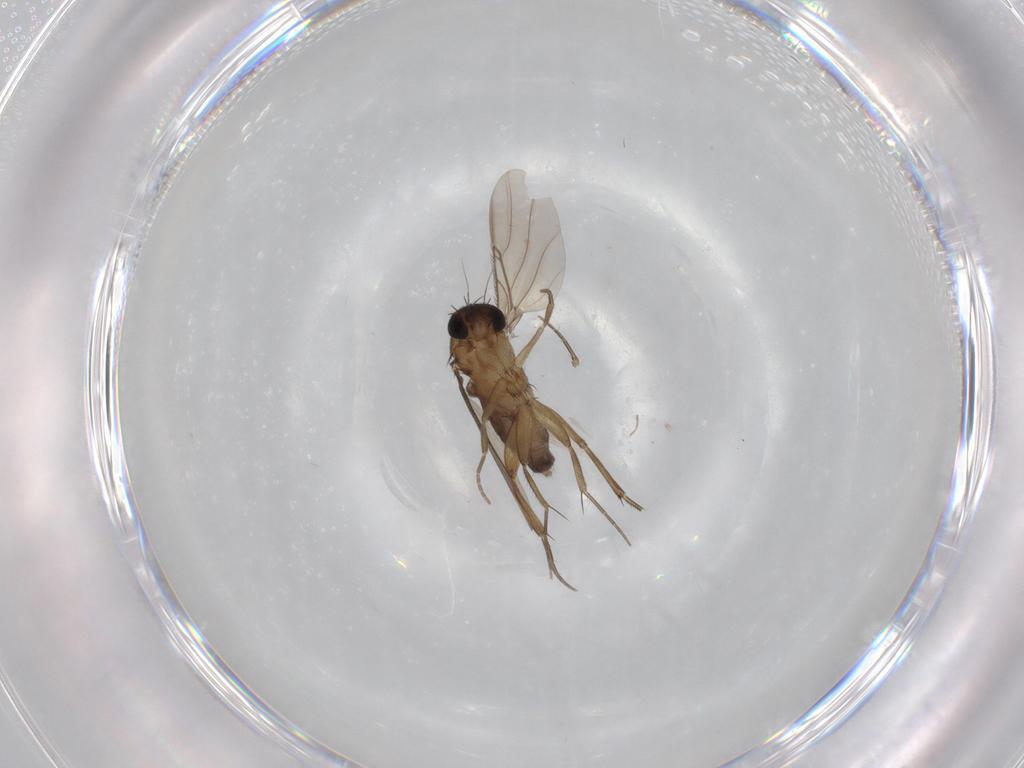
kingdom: Animalia
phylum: Arthropoda
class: Insecta
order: Diptera
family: Phoridae
